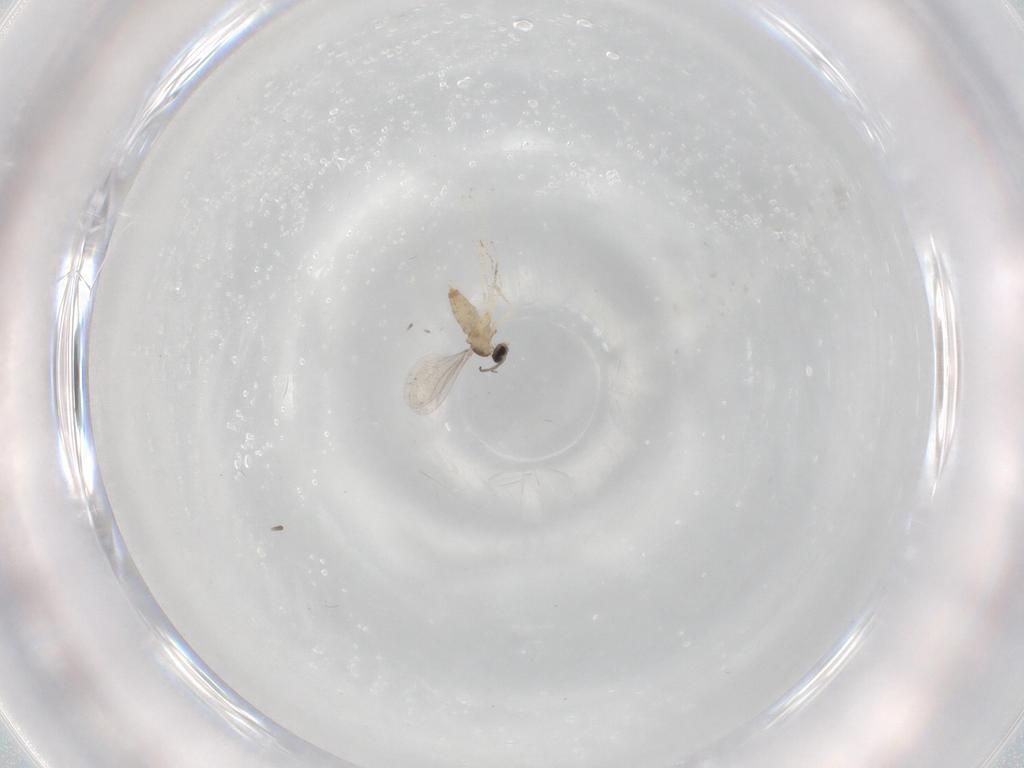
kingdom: Animalia
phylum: Arthropoda
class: Insecta
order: Diptera
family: Cecidomyiidae
